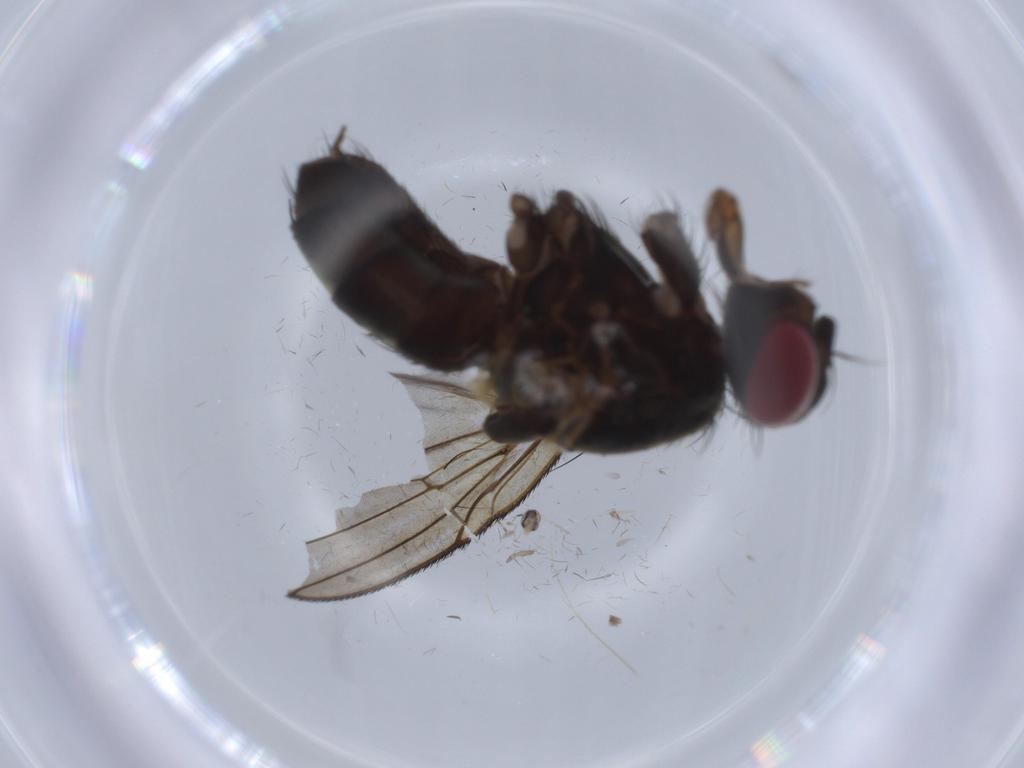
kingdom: Animalia
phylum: Arthropoda
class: Insecta
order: Diptera
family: Calliphoridae
